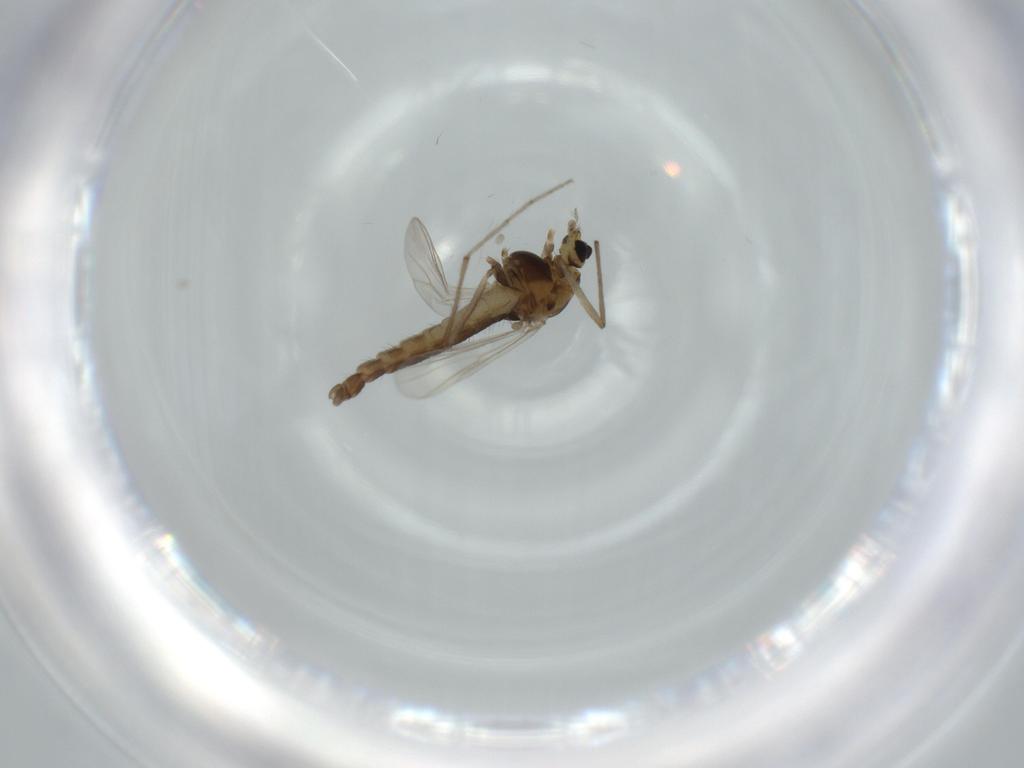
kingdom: Animalia
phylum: Arthropoda
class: Insecta
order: Diptera
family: Chironomidae
